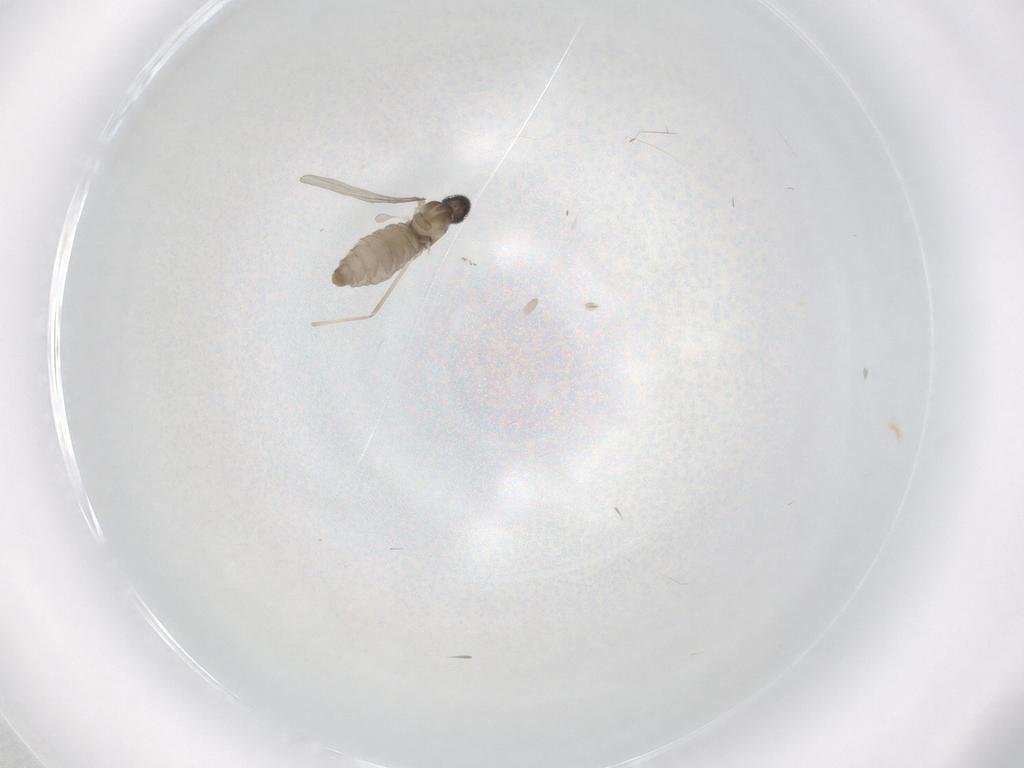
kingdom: Animalia
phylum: Arthropoda
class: Insecta
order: Diptera
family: Cecidomyiidae
